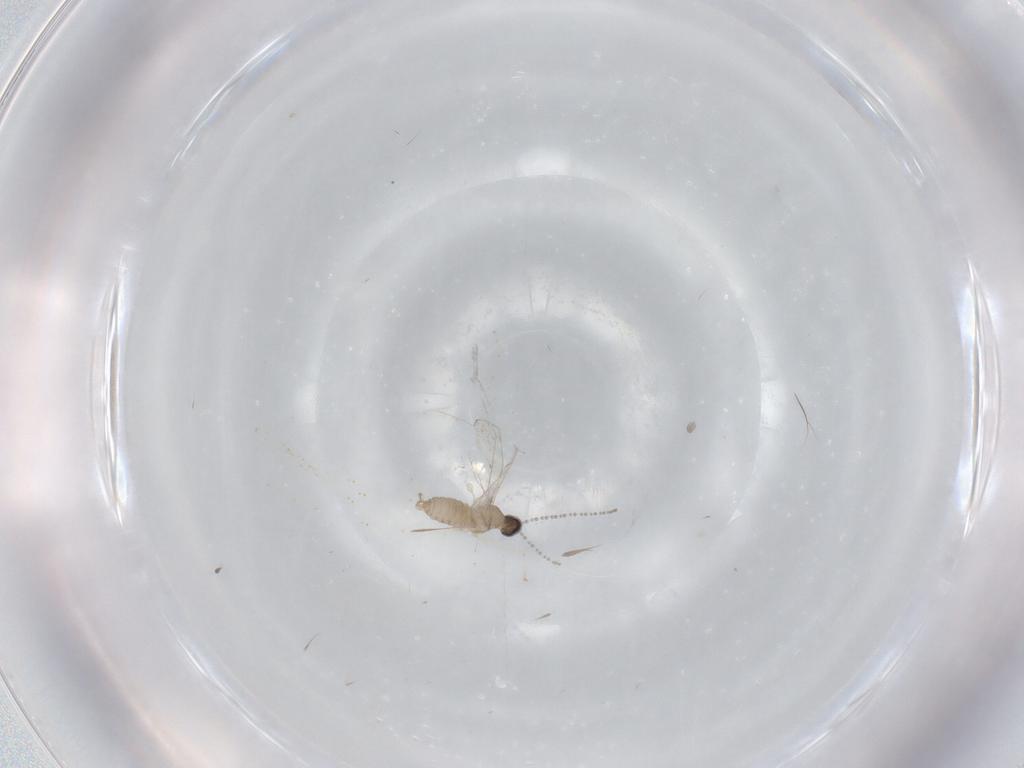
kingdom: Animalia
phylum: Arthropoda
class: Insecta
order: Diptera
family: Cecidomyiidae
